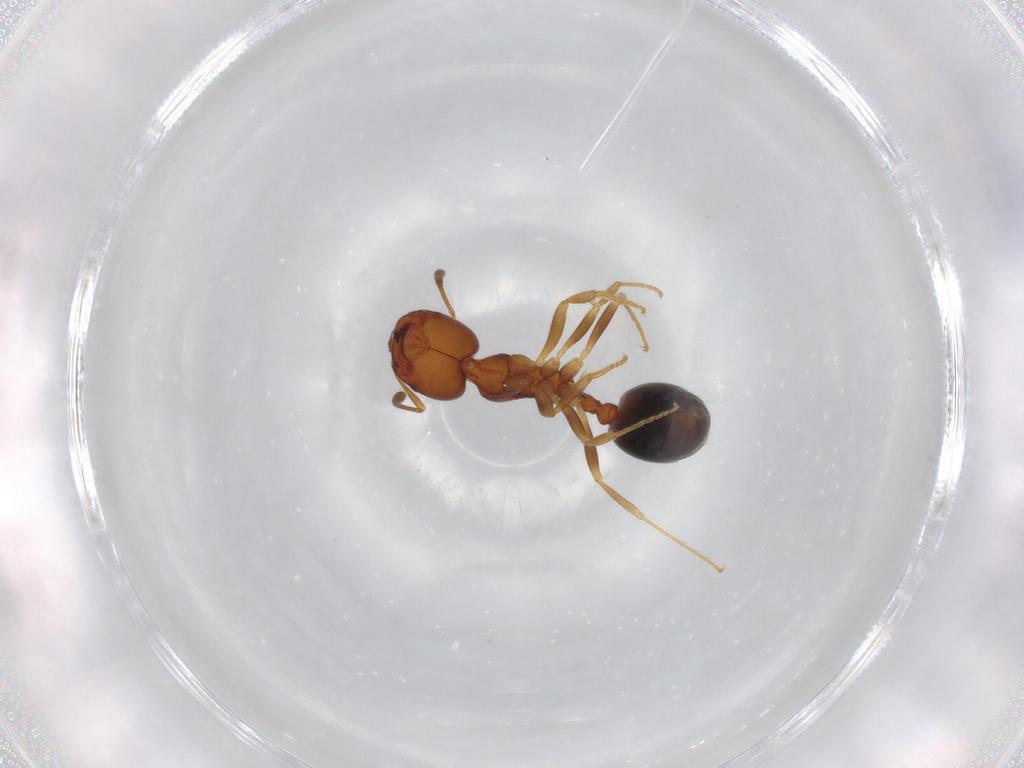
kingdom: Animalia
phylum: Arthropoda
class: Insecta
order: Hymenoptera
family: Formicidae
